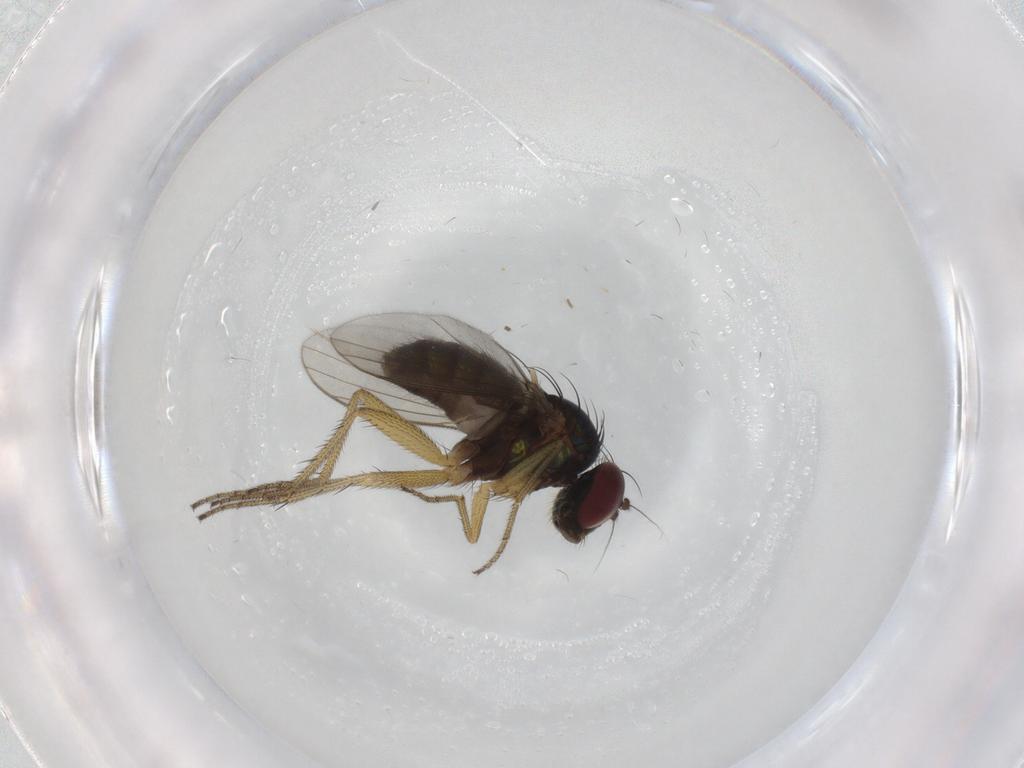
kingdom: Animalia
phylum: Arthropoda
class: Insecta
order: Diptera
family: Dolichopodidae
